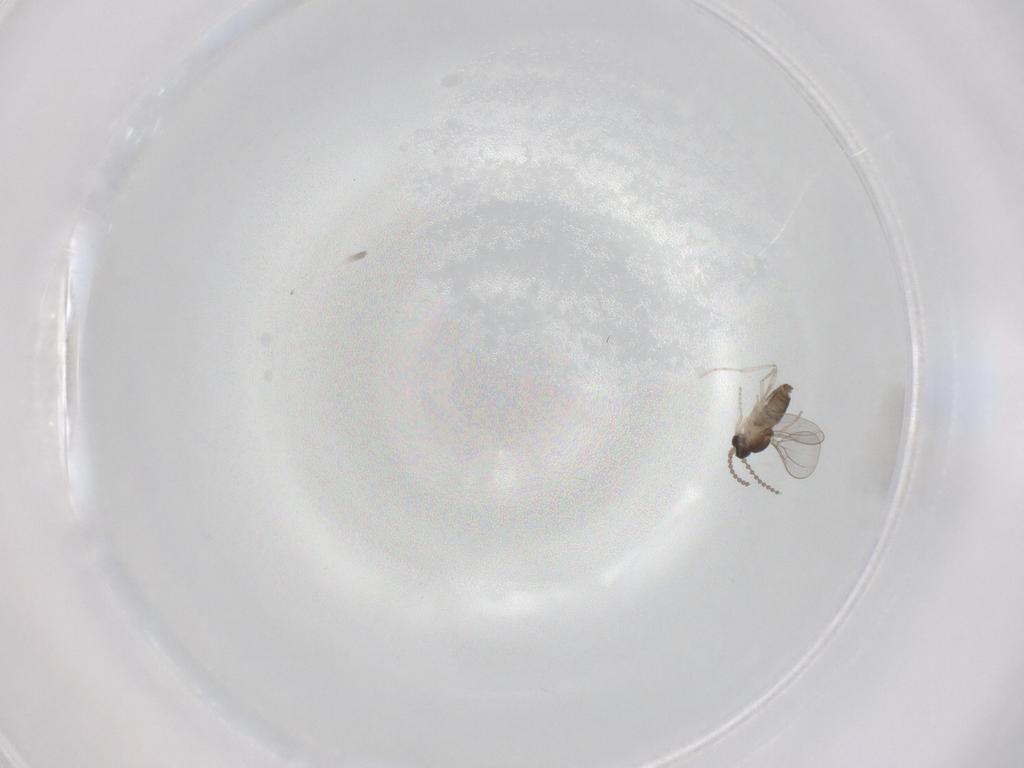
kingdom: Animalia
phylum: Arthropoda
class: Insecta
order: Diptera
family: Cecidomyiidae
